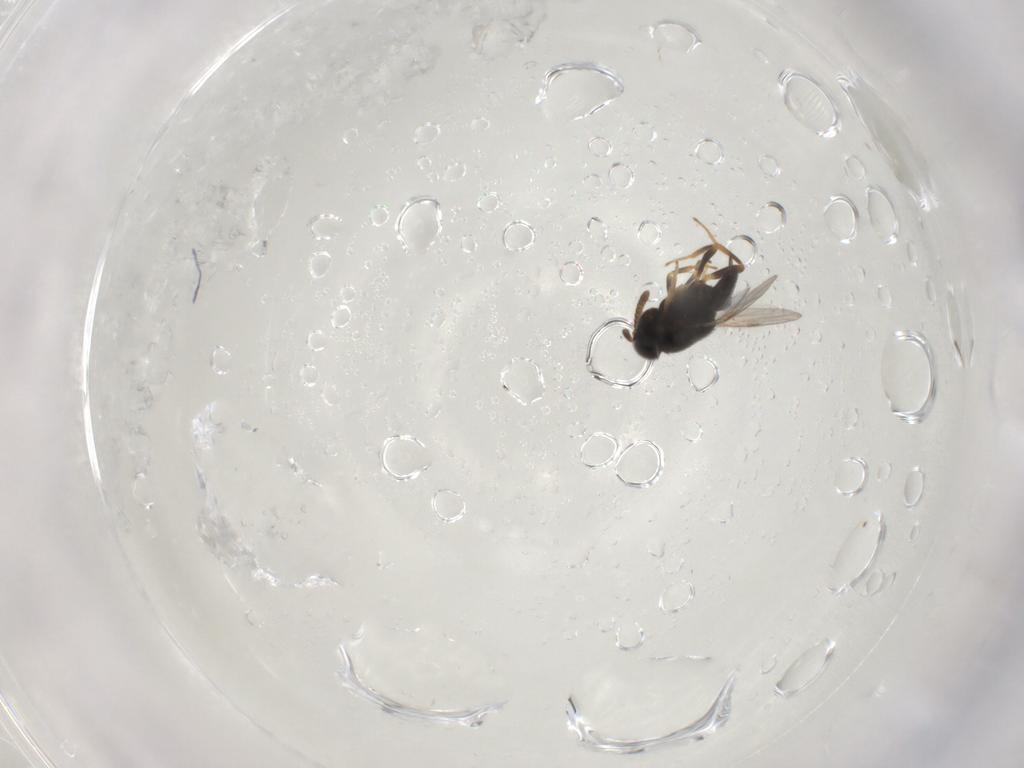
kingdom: Animalia
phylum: Arthropoda
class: Insecta
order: Hymenoptera
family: Encyrtidae
